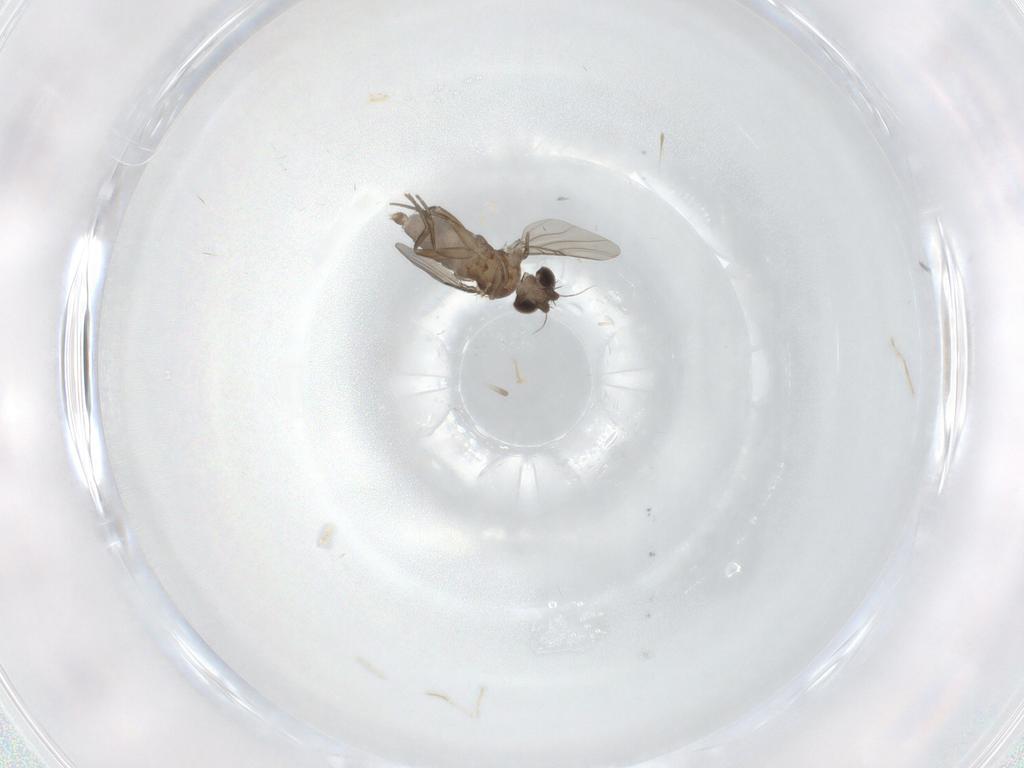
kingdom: Animalia
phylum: Arthropoda
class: Insecta
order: Diptera
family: Phoridae
